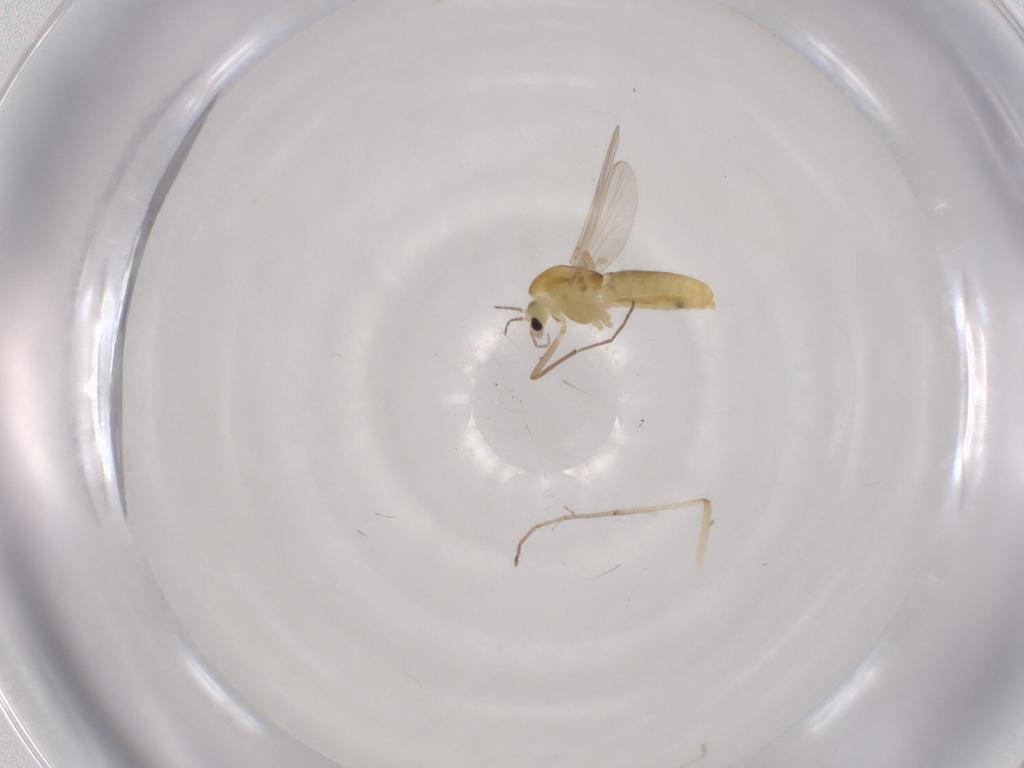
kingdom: Animalia
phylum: Arthropoda
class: Insecta
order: Diptera
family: Chironomidae
